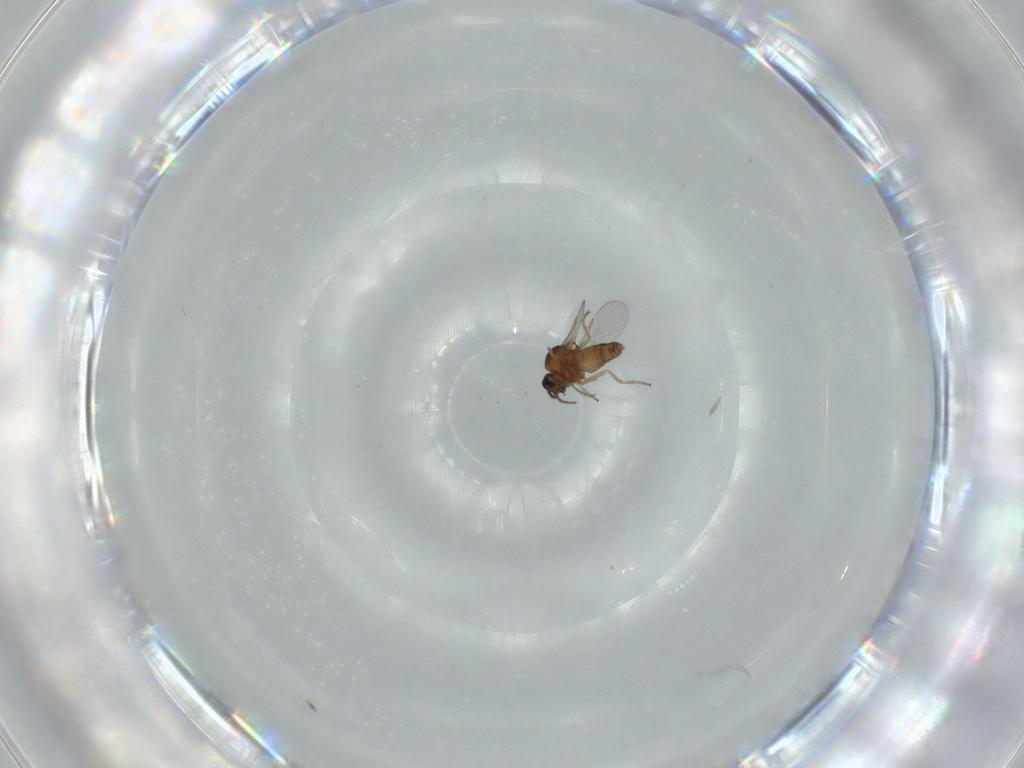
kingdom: Animalia
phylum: Arthropoda
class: Insecta
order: Diptera
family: Ceratopogonidae
